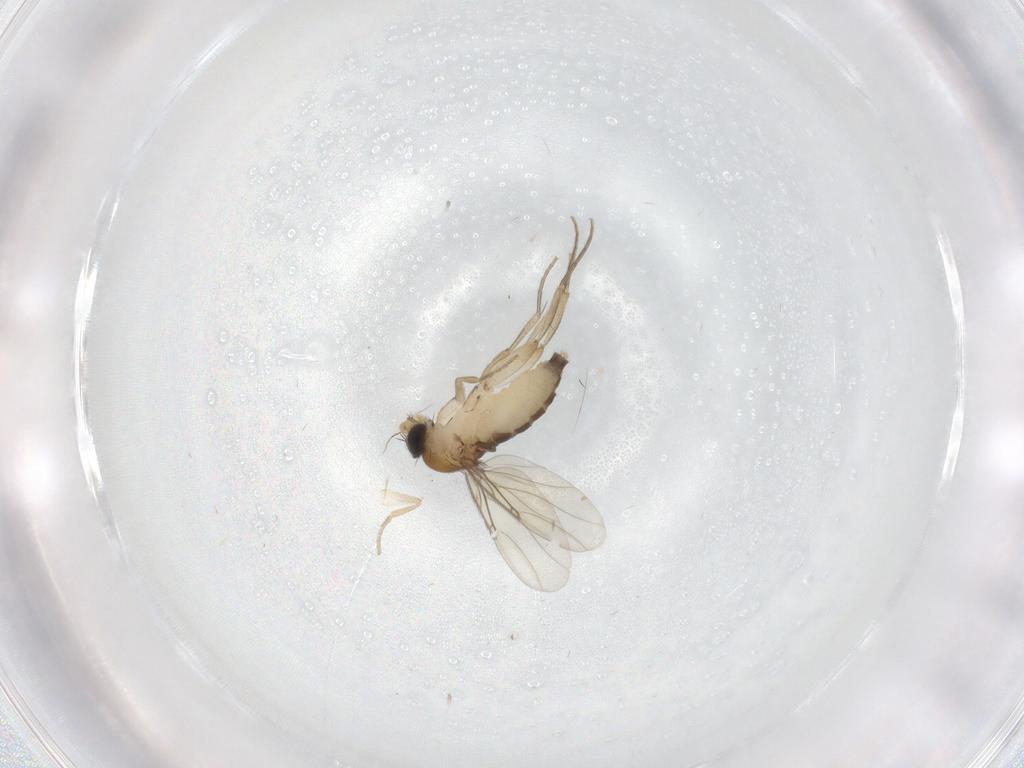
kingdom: Animalia
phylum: Arthropoda
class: Insecta
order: Diptera
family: Phoridae
